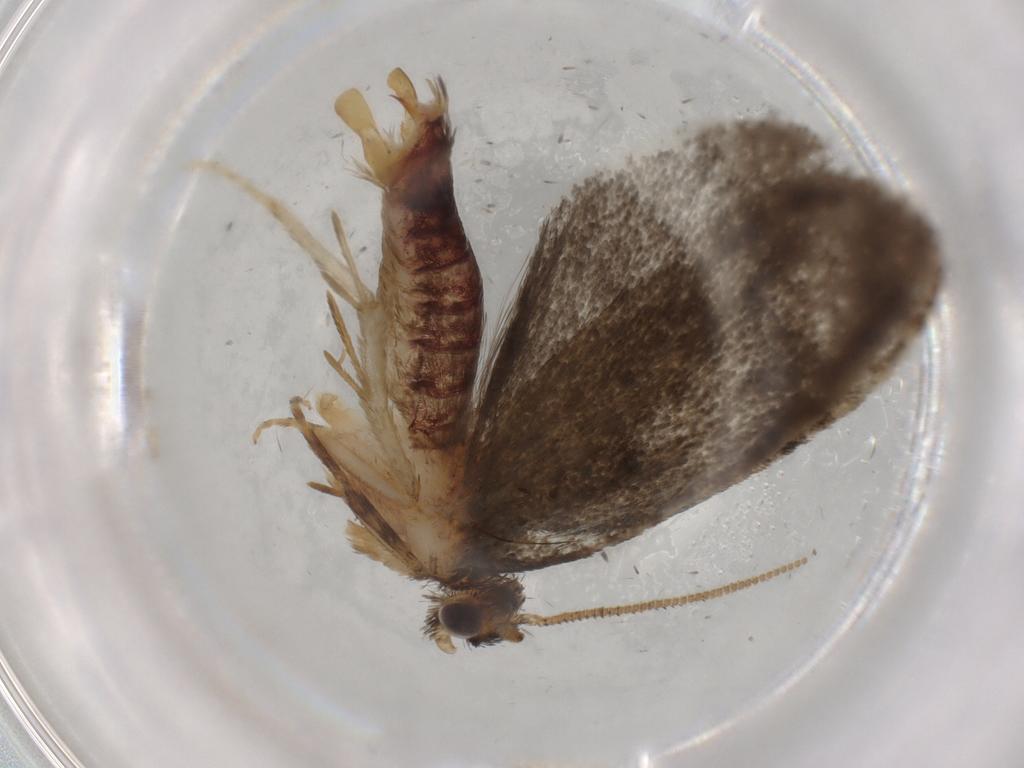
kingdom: Animalia
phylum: Arthropoda
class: Insecta
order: Lepidoptera
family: Tineidae
